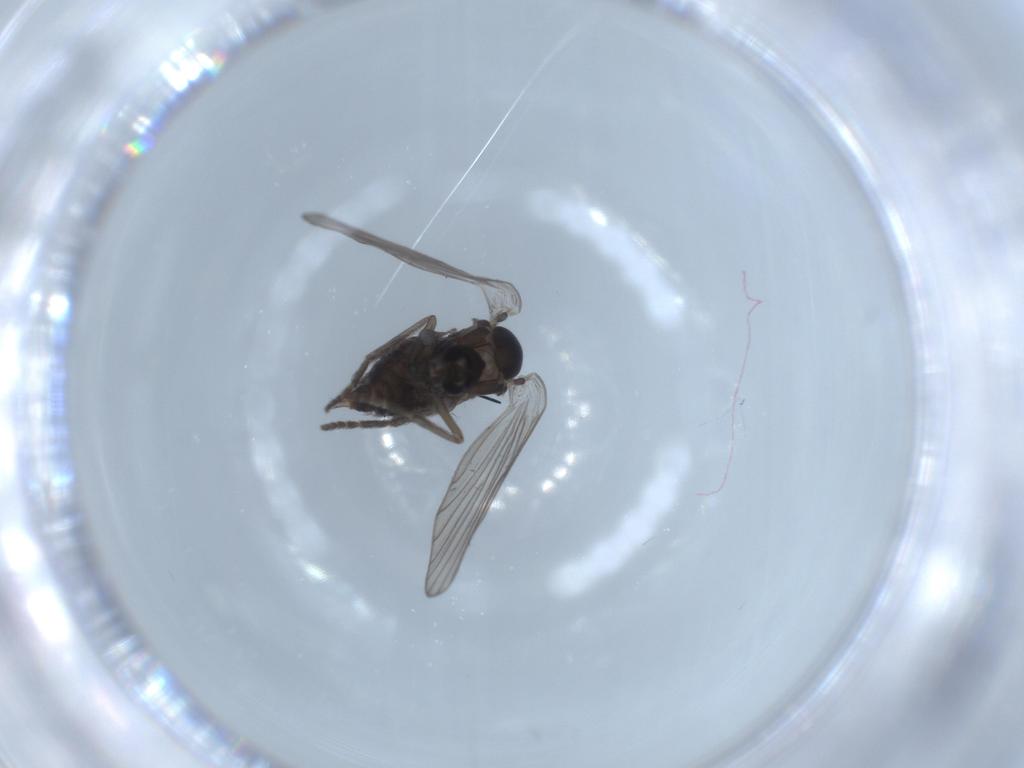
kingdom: Animalia
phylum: Arthropoda
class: Insecta
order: Diptera
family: Psychodidae
